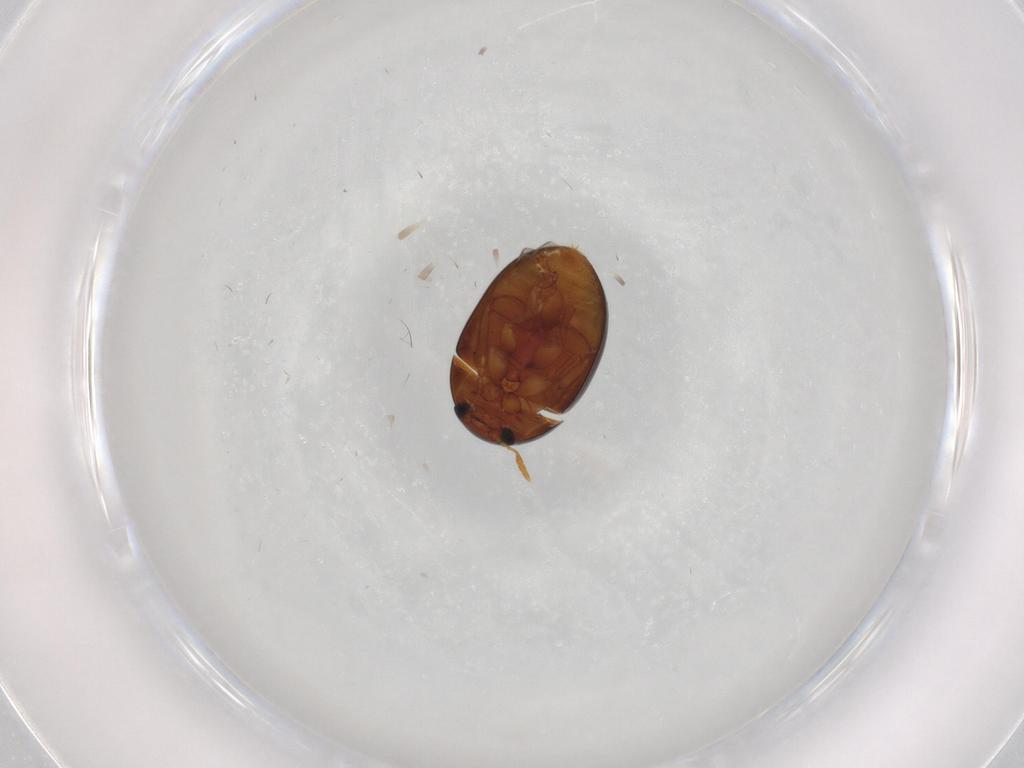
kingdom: Animalia
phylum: Arthropoda
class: Insecta
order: Coleoptera
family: Phalacridae
